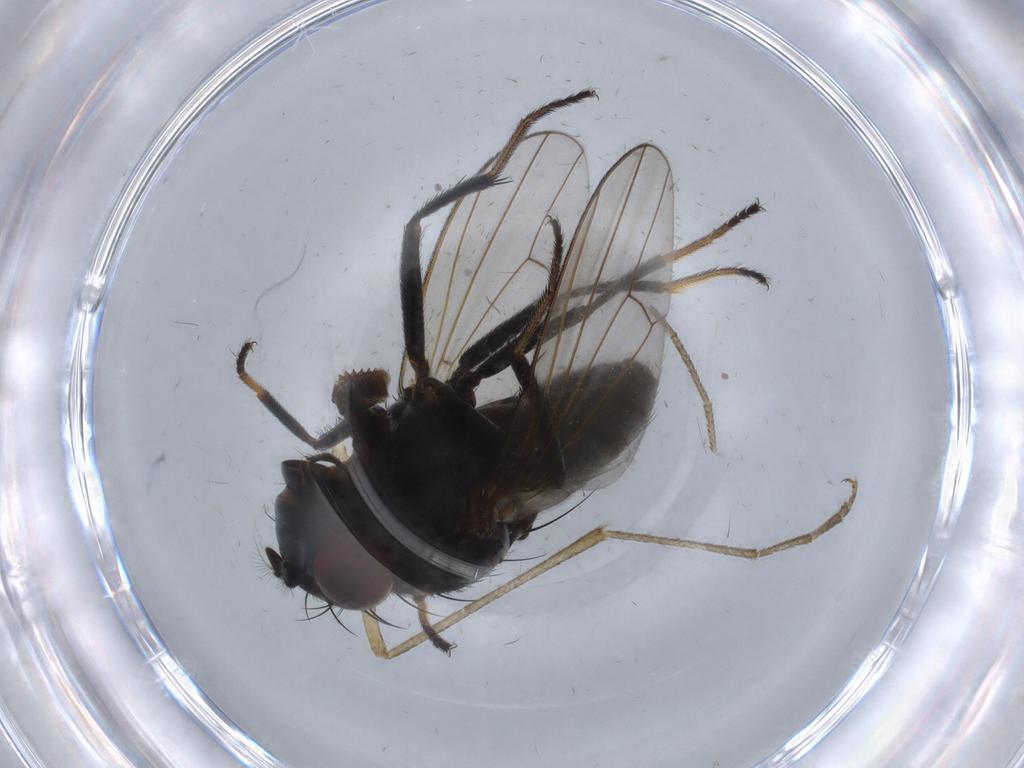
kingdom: Animalia
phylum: Arthropoda
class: Insecta
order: Diptera
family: Ephydridae
